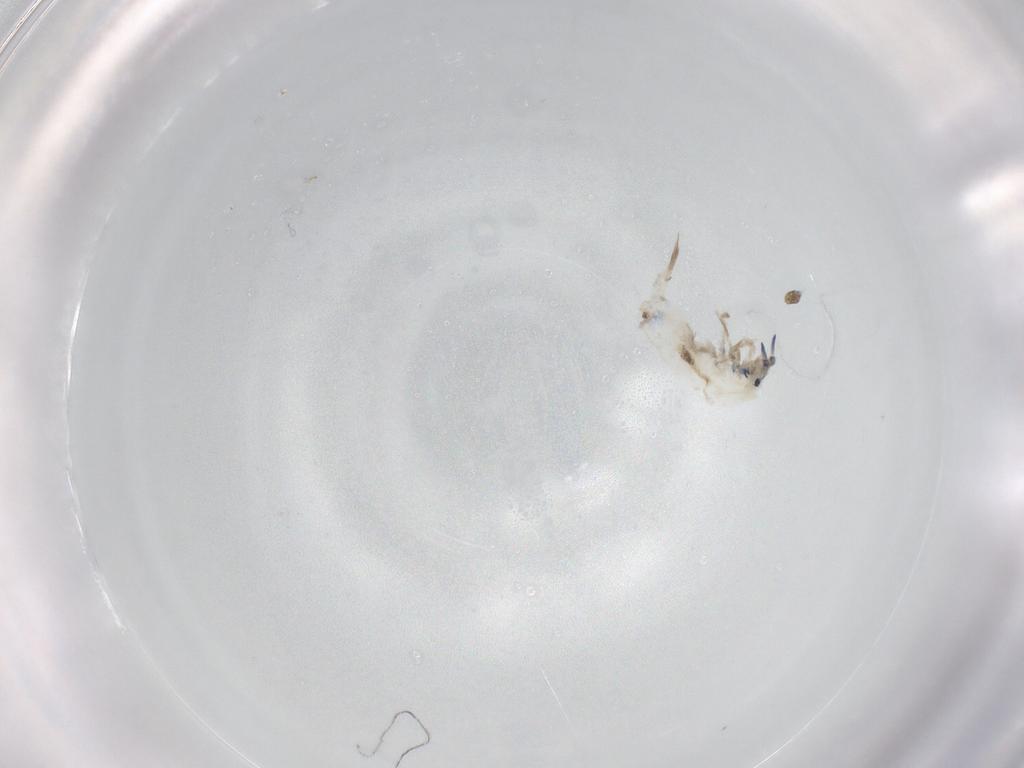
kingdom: Animalia
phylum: Arthropoda
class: Collembola
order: Entomobryomorpha
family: Entomobryidae
